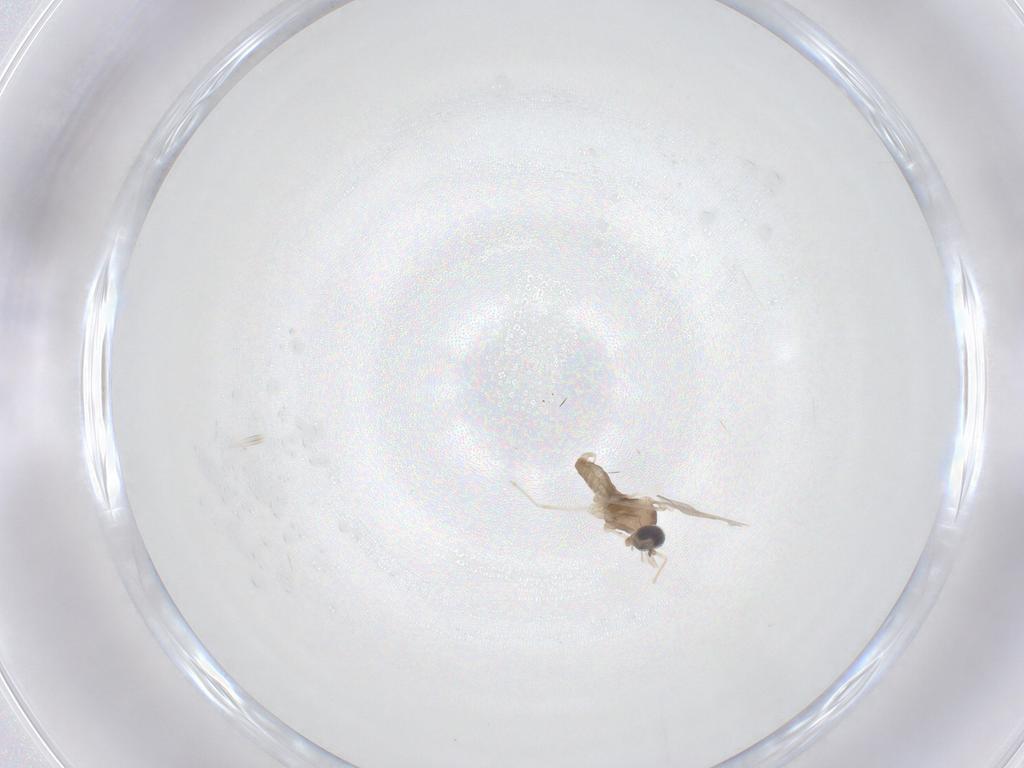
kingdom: Animalia
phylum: Arthropoda
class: Insecta
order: Diptera
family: Cecidomyiidae
